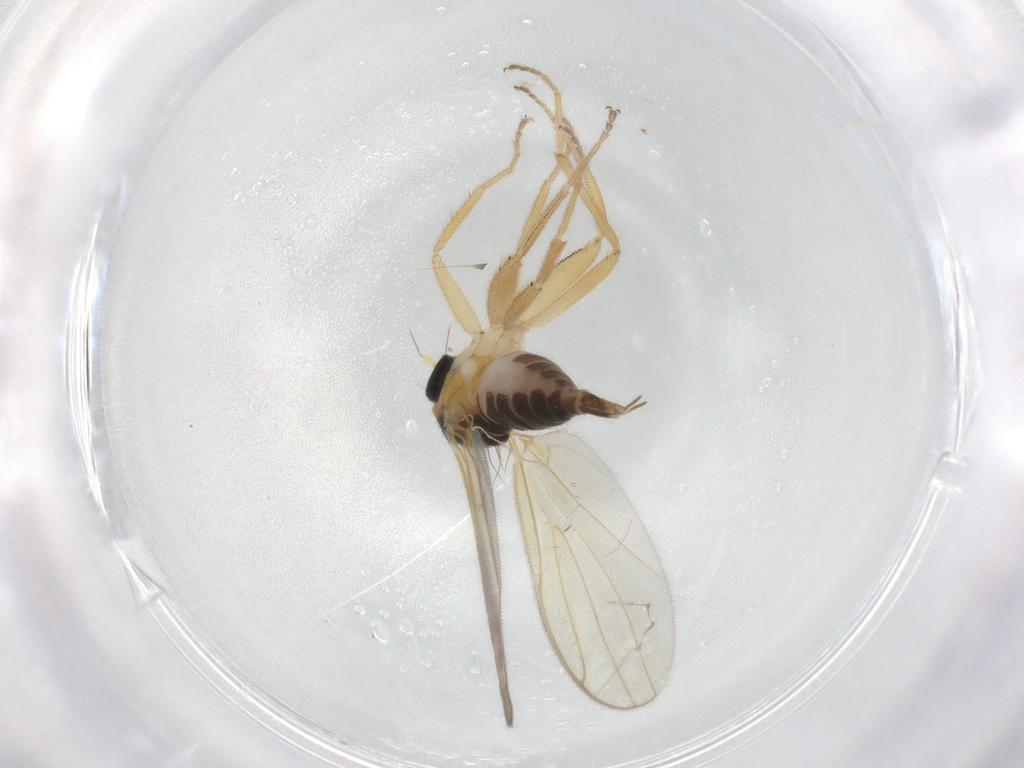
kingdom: Animalia
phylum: Arthropoda
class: Insecta
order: Diptera
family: Hybotidae
